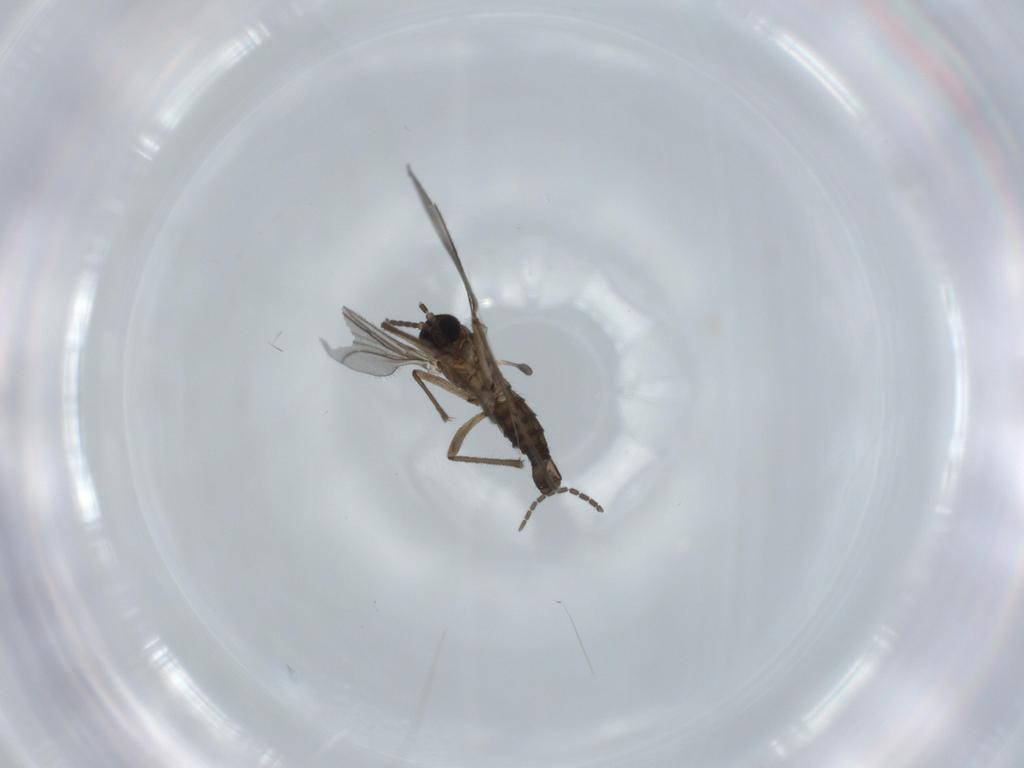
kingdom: Animalia
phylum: Arthropoda
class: Insecta
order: Diptera
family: Sciaridae
